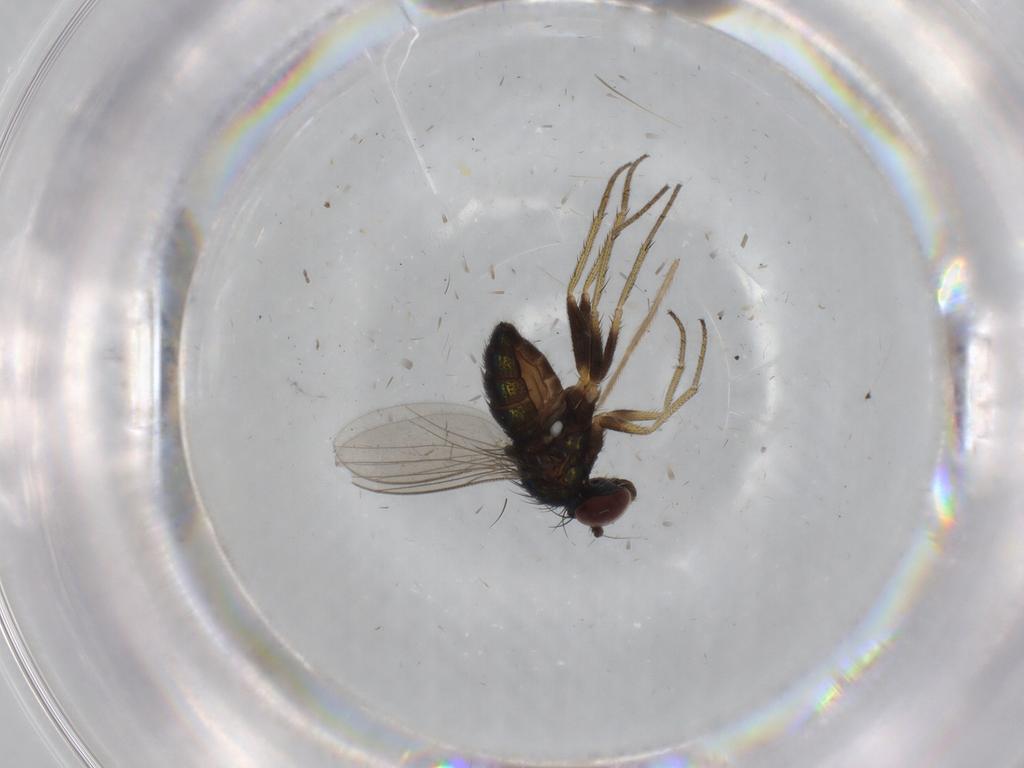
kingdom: Animalia
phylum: Arthropoda
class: Insecta
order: Diptera
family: Dolichopodidae
